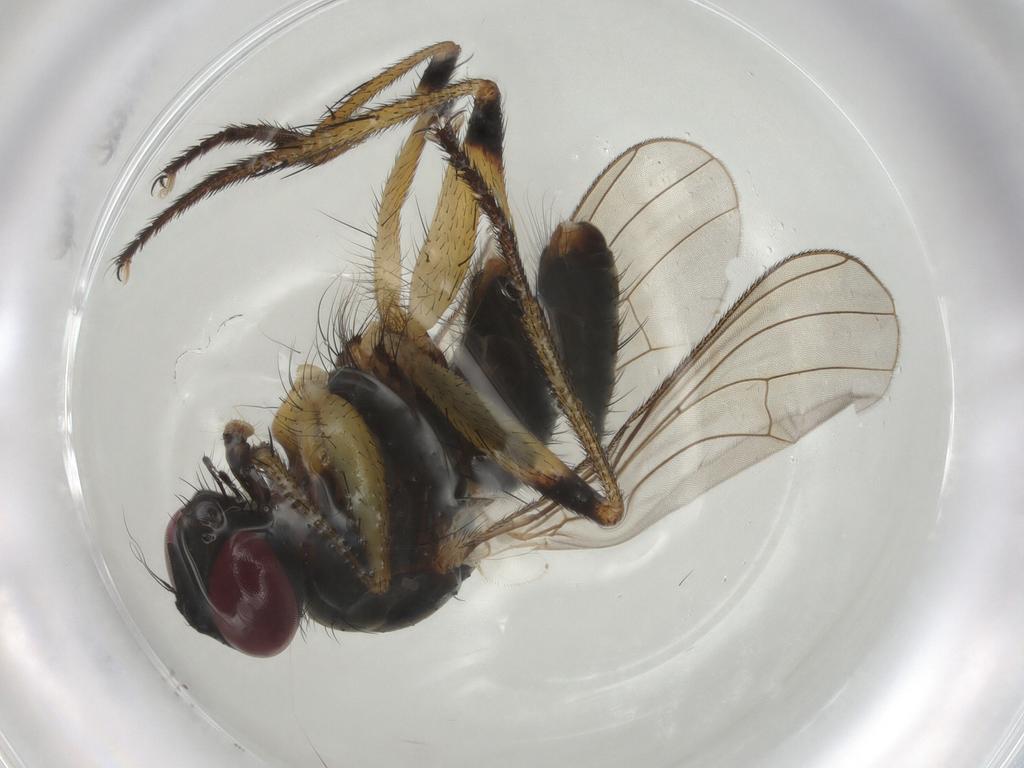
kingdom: Animalia
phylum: Arthropoda
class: Insecta
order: Diptera
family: Muscidae
